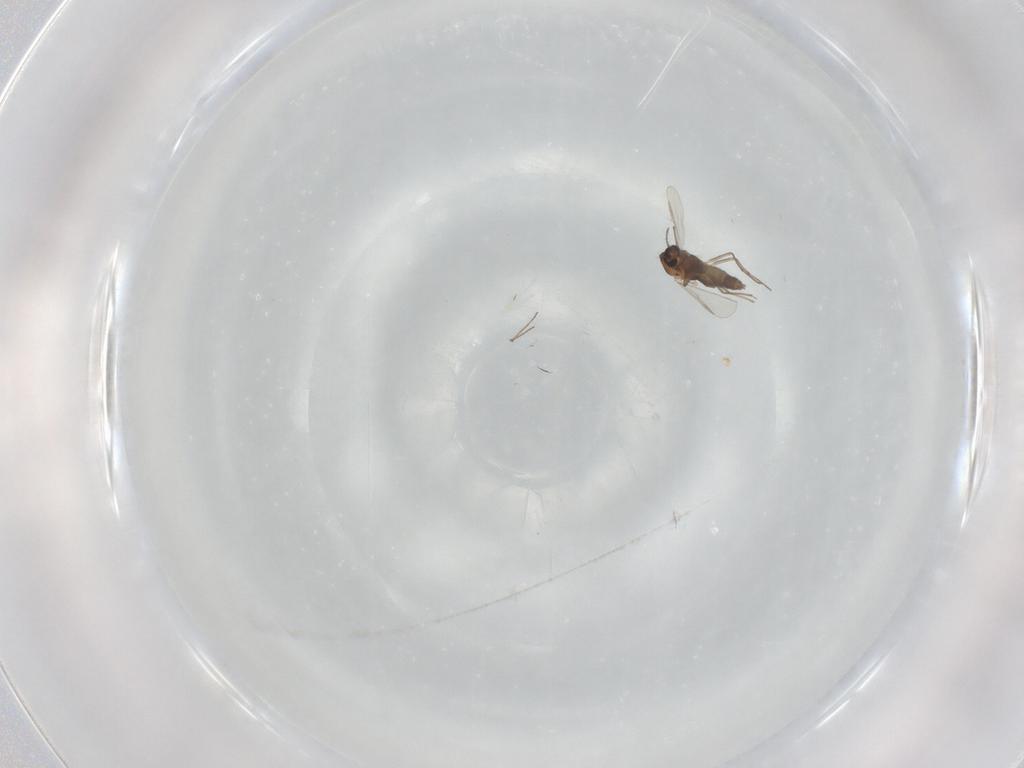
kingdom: Animalia
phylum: Arthropoda
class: Insecta
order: Diptera
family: Chironomidae
